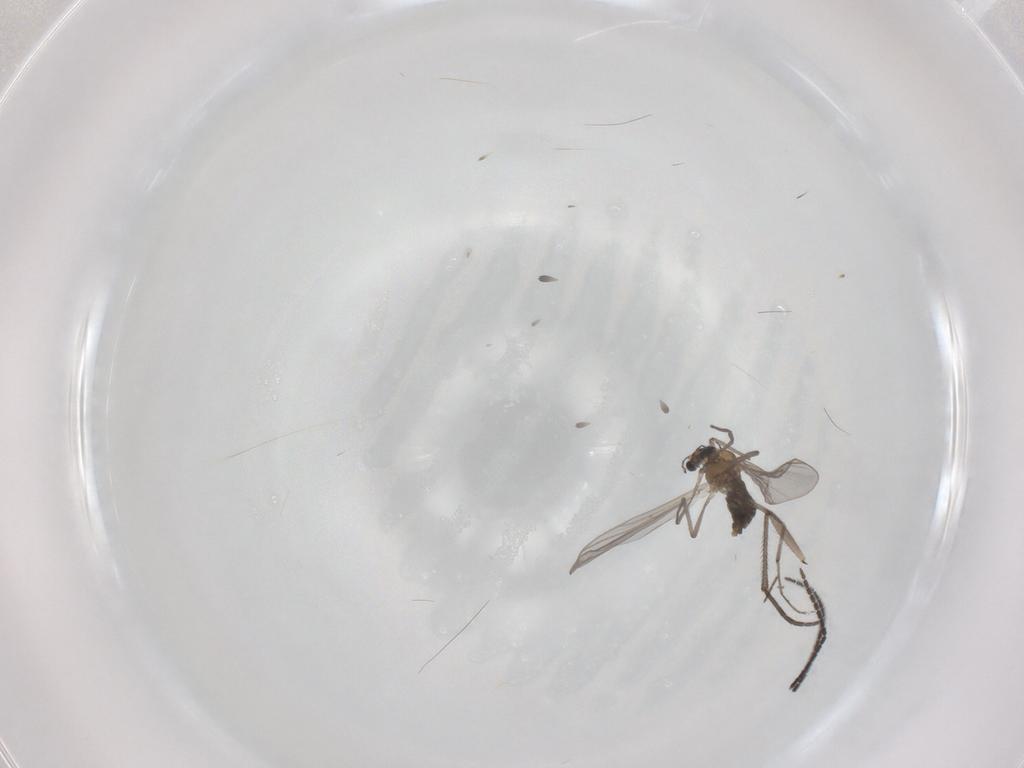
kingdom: Animalia
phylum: Arthropoda
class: Insecta
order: Diptera
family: Chironomidae
